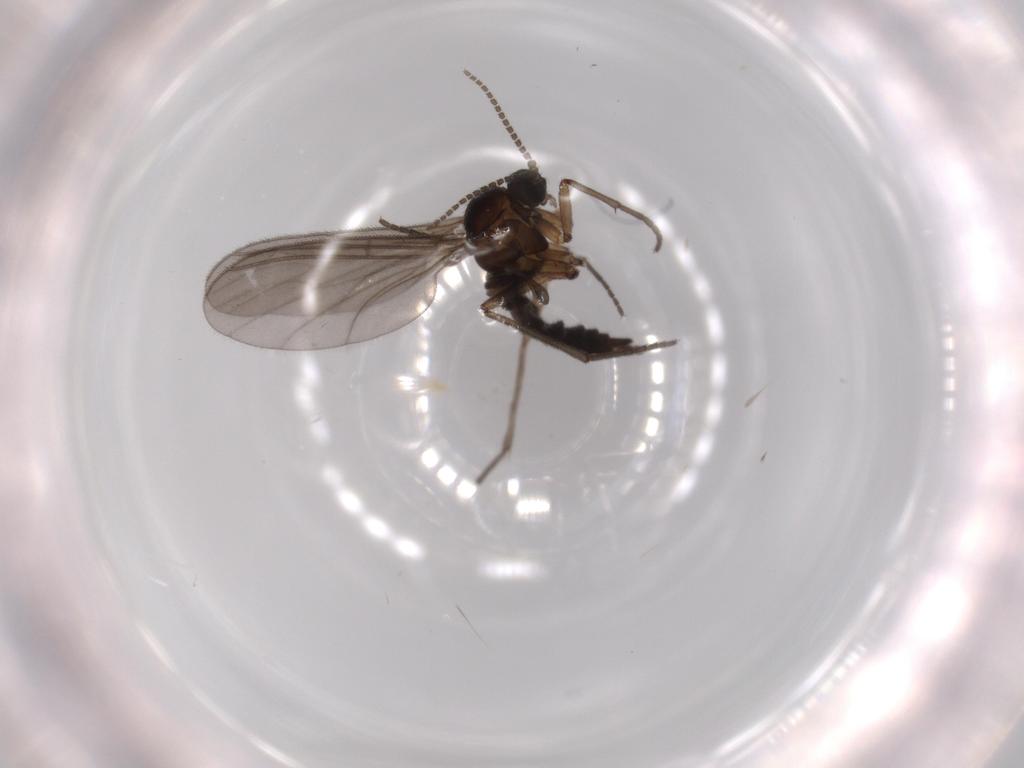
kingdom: Animalia
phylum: Arthropoda
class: Insecta
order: Diptera
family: Sciaridae
